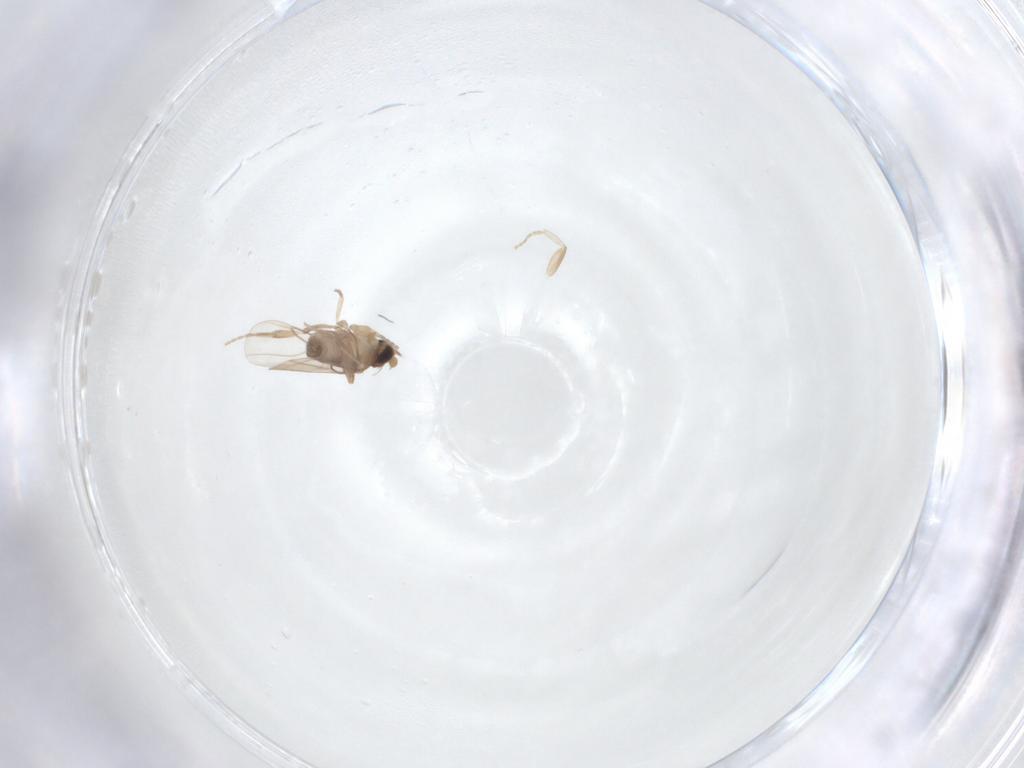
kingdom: Animalia
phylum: Arthropoda
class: Insecta
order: Diptera
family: Phoridae
